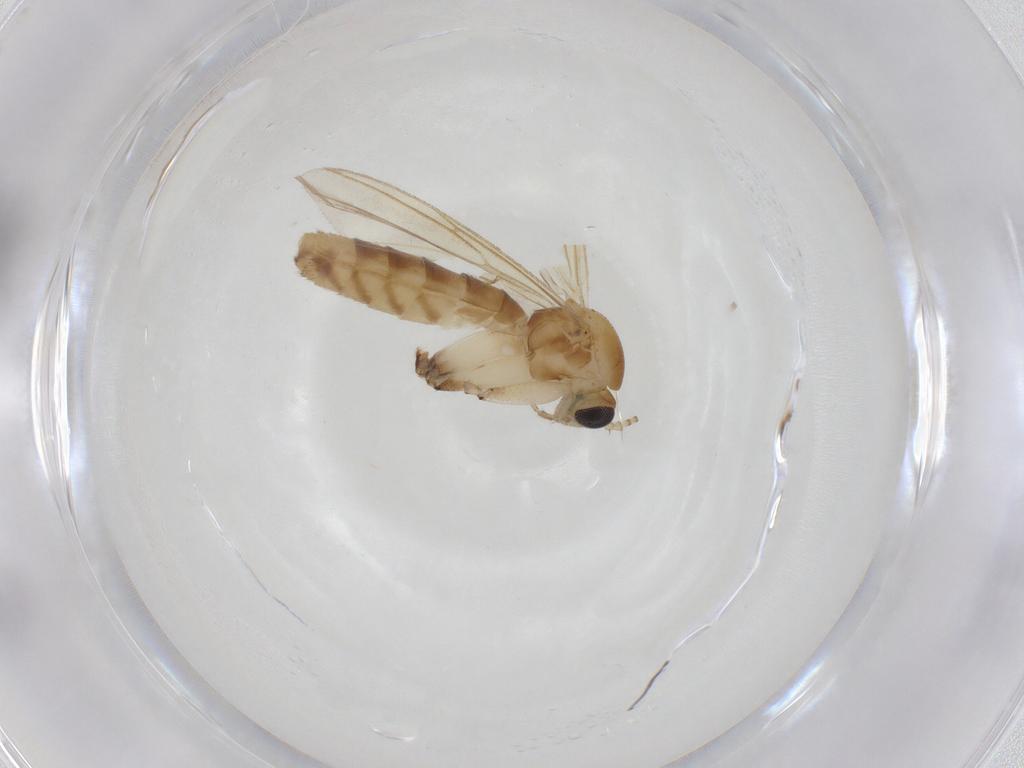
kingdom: Animalia
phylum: Arthropoda
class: Insecta
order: Diptera
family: Mycetophilidae
